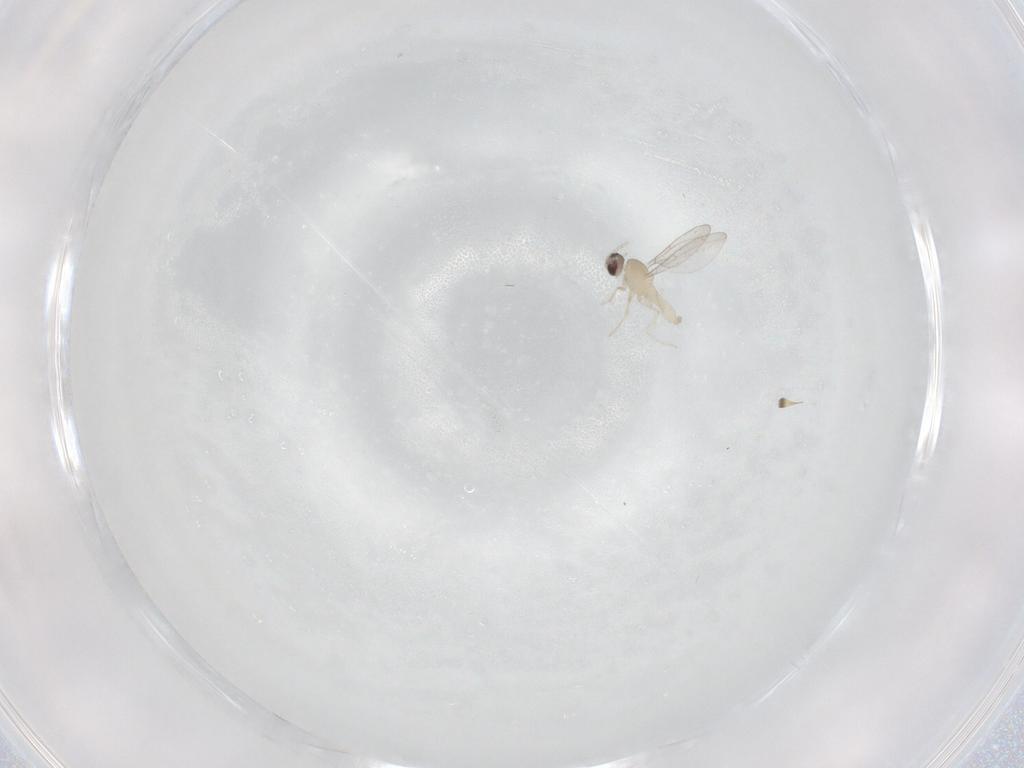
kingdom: Animalia
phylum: Arthropoda
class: Insecta
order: Diptera
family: Cecidomyiidae
